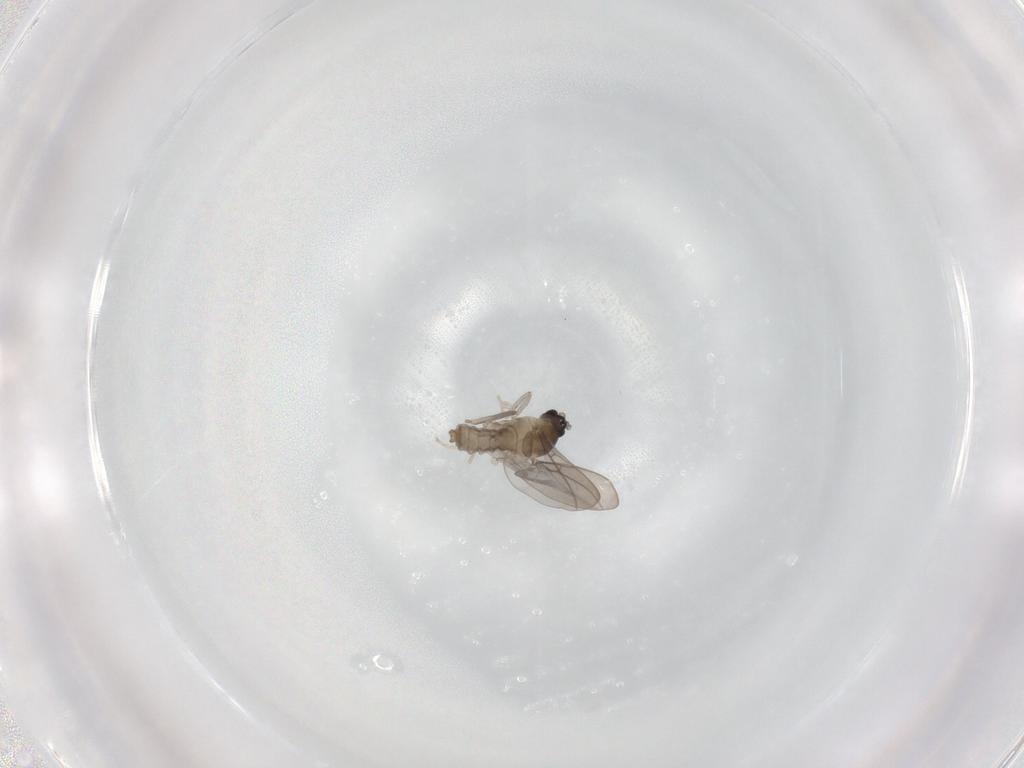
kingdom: Animalia
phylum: Arthropoda
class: Insecta
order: Diptera
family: Cecidomyiidae
